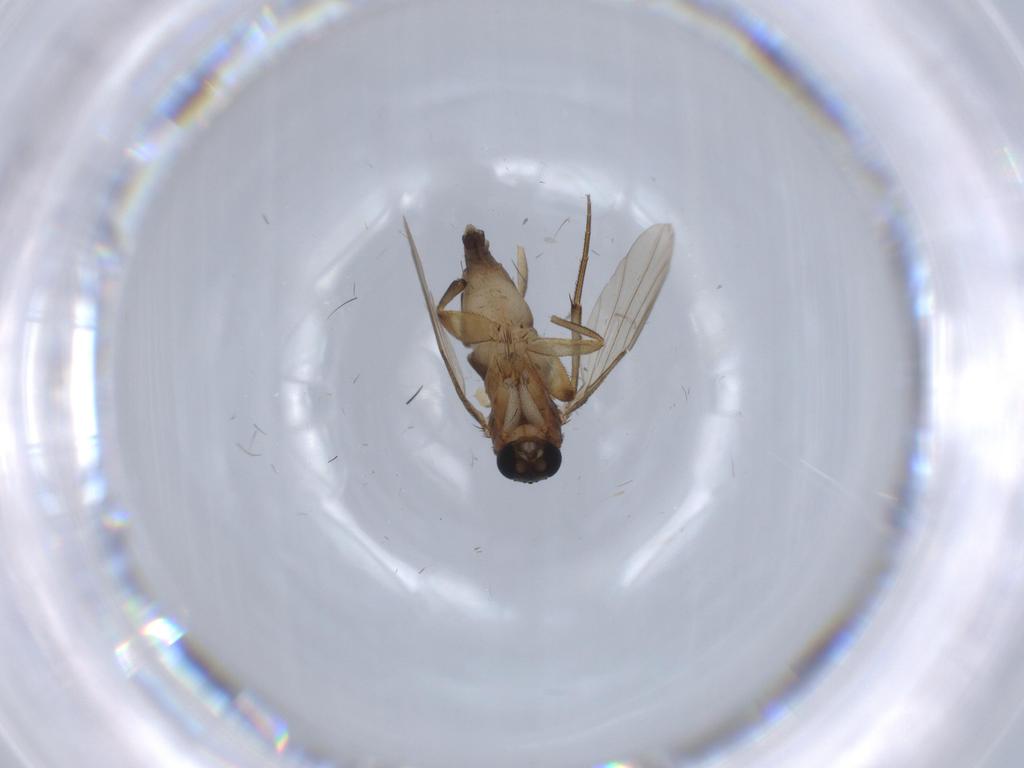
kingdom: Animalia
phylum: Arthropoda
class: Insecta
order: Diptera
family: Phoridae
